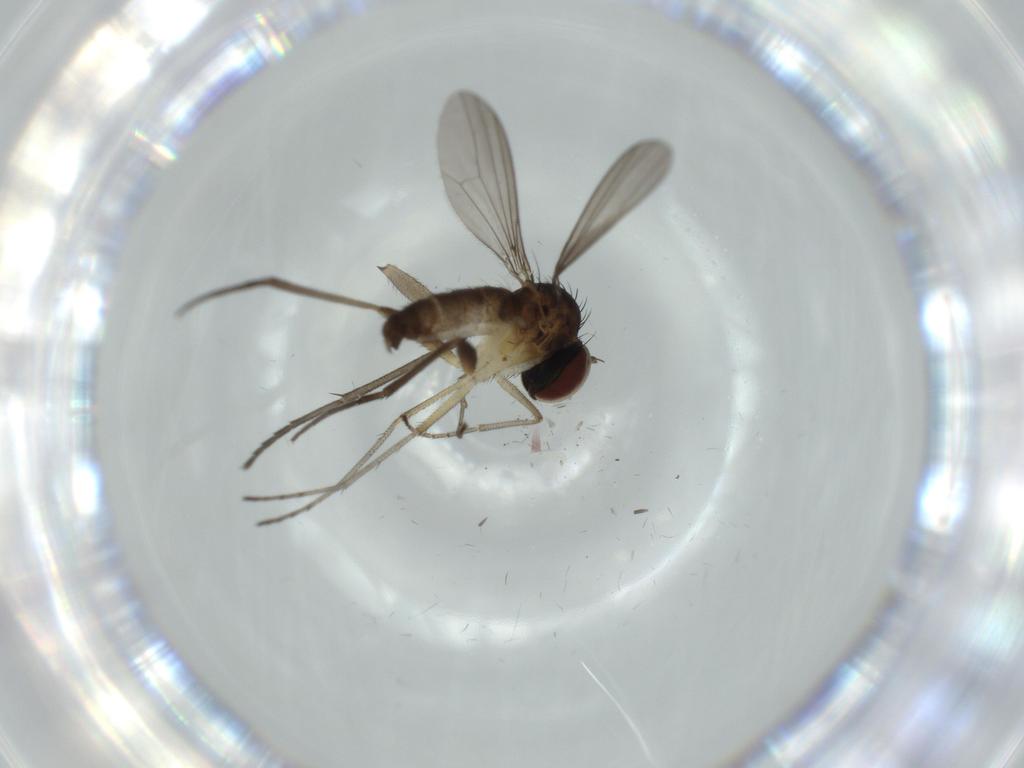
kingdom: Animalia
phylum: Arthropoda
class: Insecta
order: Diptera
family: Dolichopodidae
